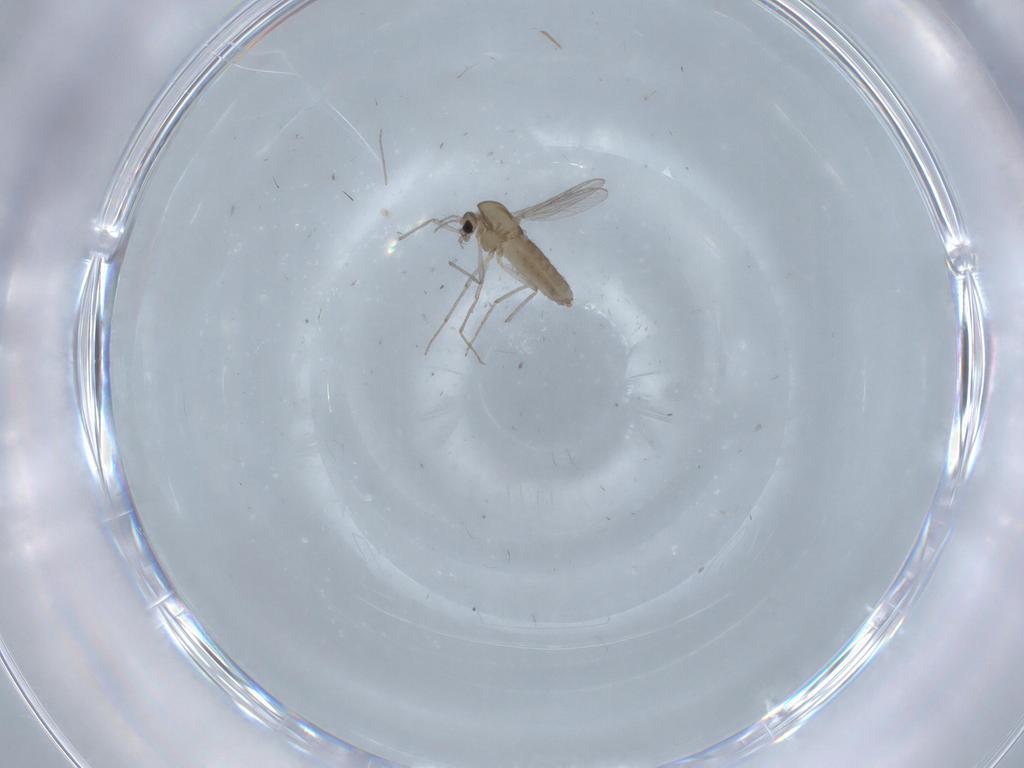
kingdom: Animalia
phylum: Arthropoda
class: Insecta
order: Diptera
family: Chironomidae
